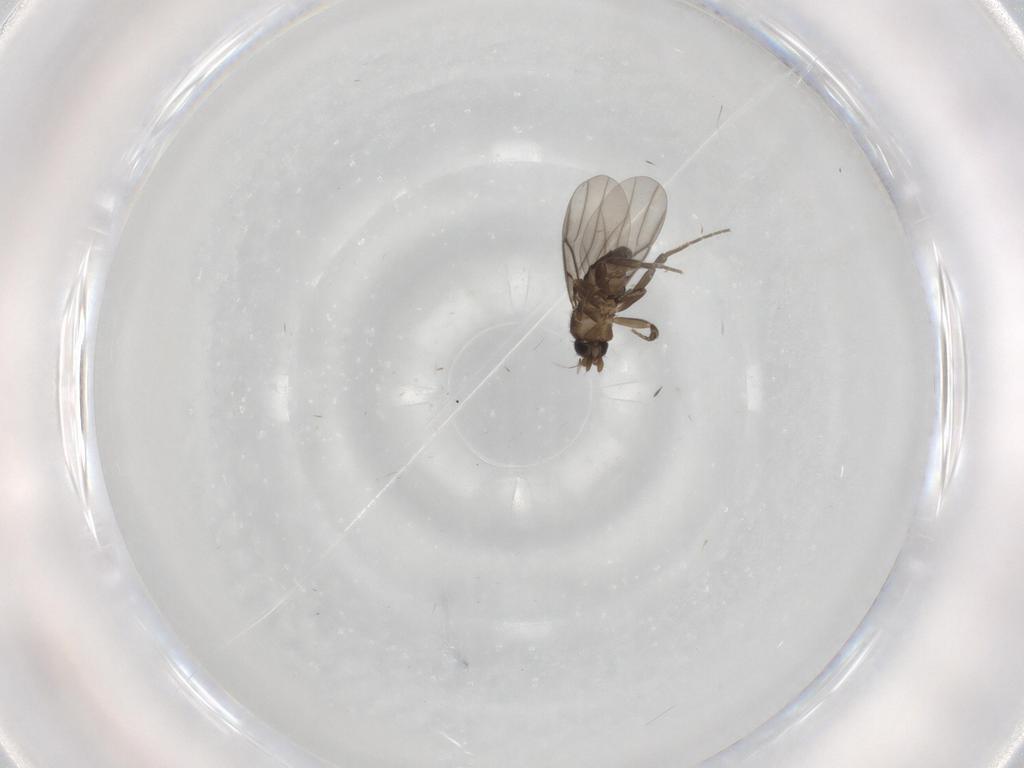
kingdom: Animalia
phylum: Arthropoda
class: Insecta
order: Diptera
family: Phoridae
